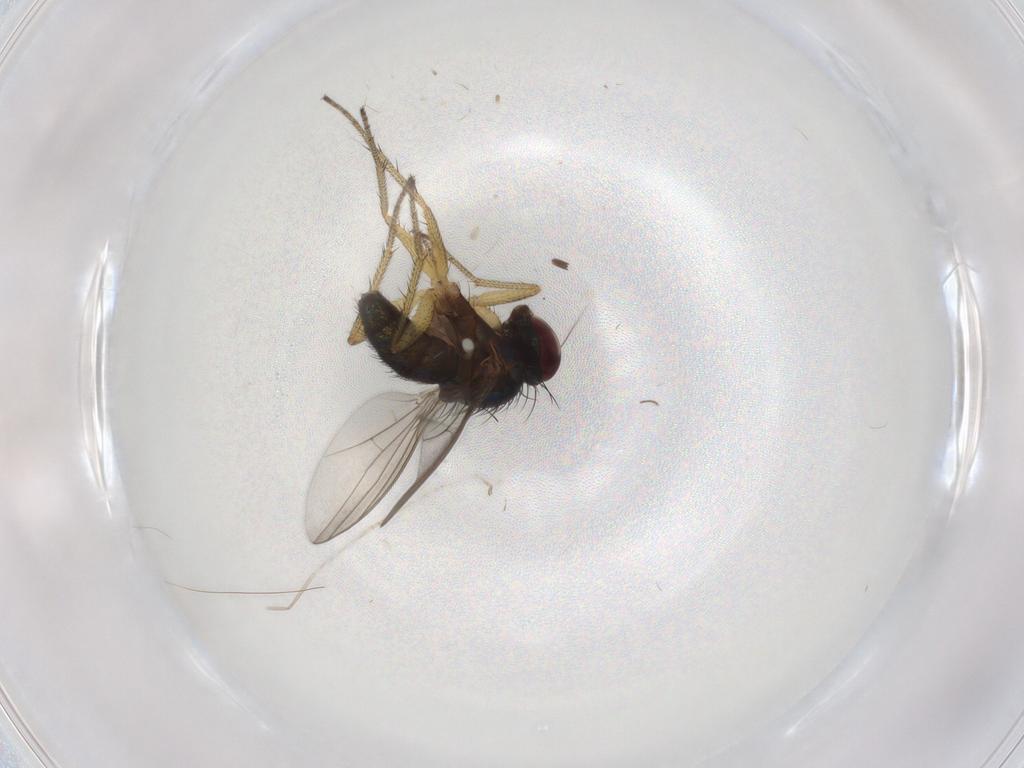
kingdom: Animalia
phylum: Arthropoda
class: Insecta
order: Diptera
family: Dolichopodidae
